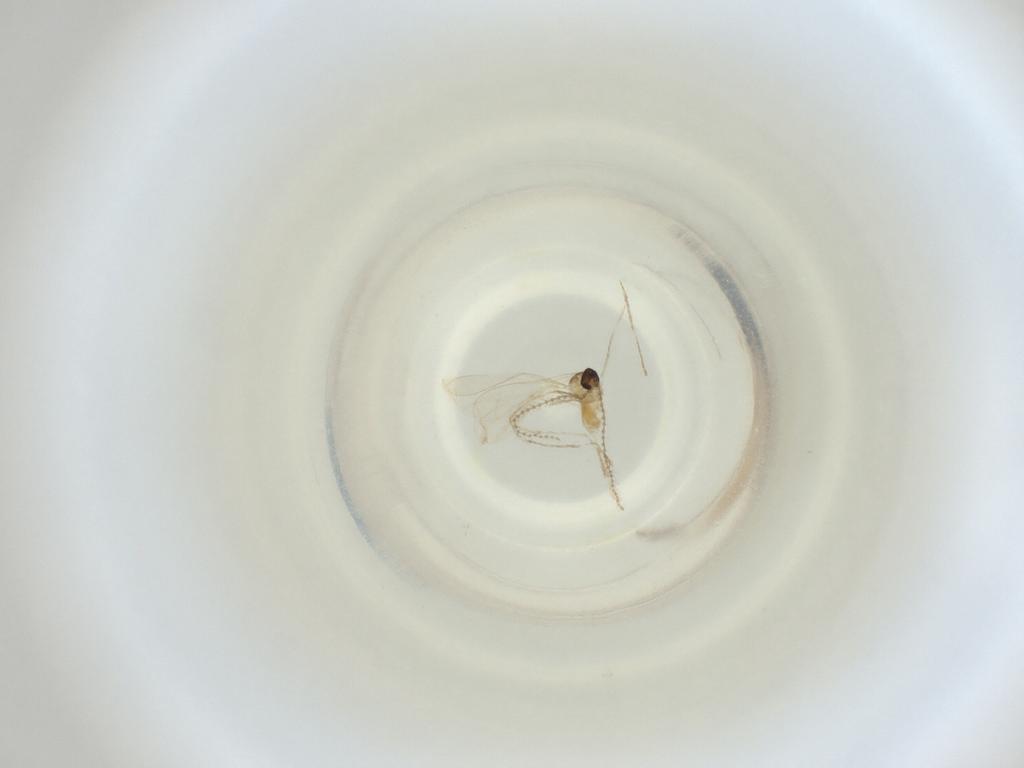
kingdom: Animalia
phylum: Arthropoda
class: Insecta
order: Diptera
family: Cecidomyiidae
